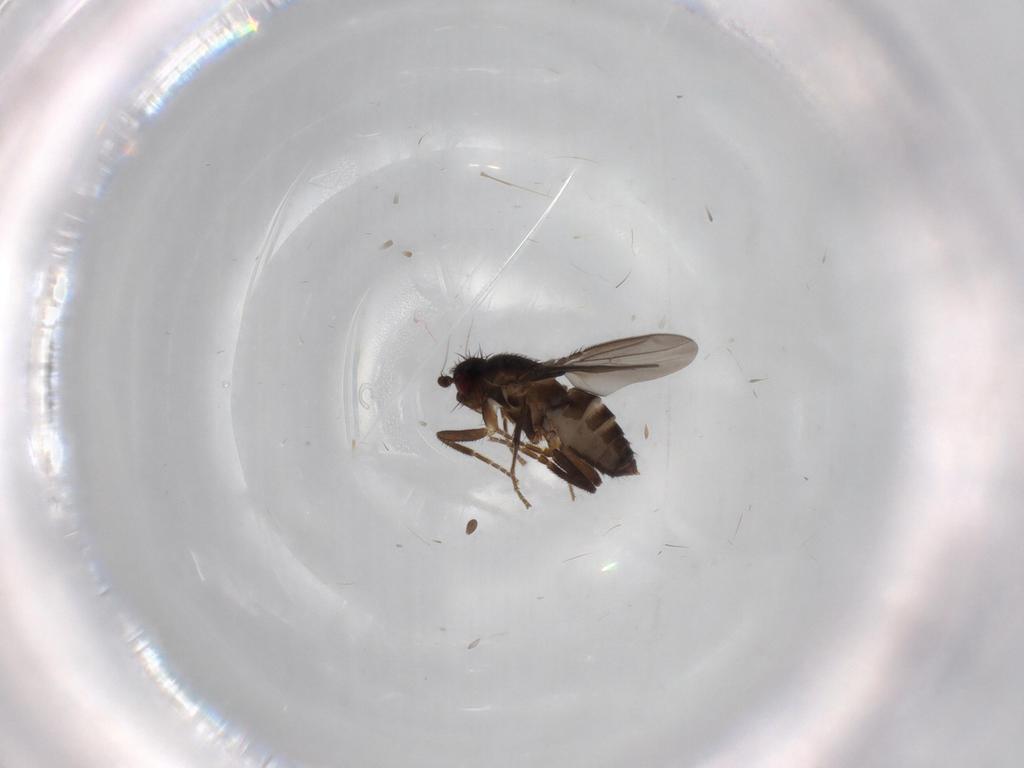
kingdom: Animalia
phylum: Arthropoda
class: Insecta
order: Diptera
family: Sphaeroceridae
